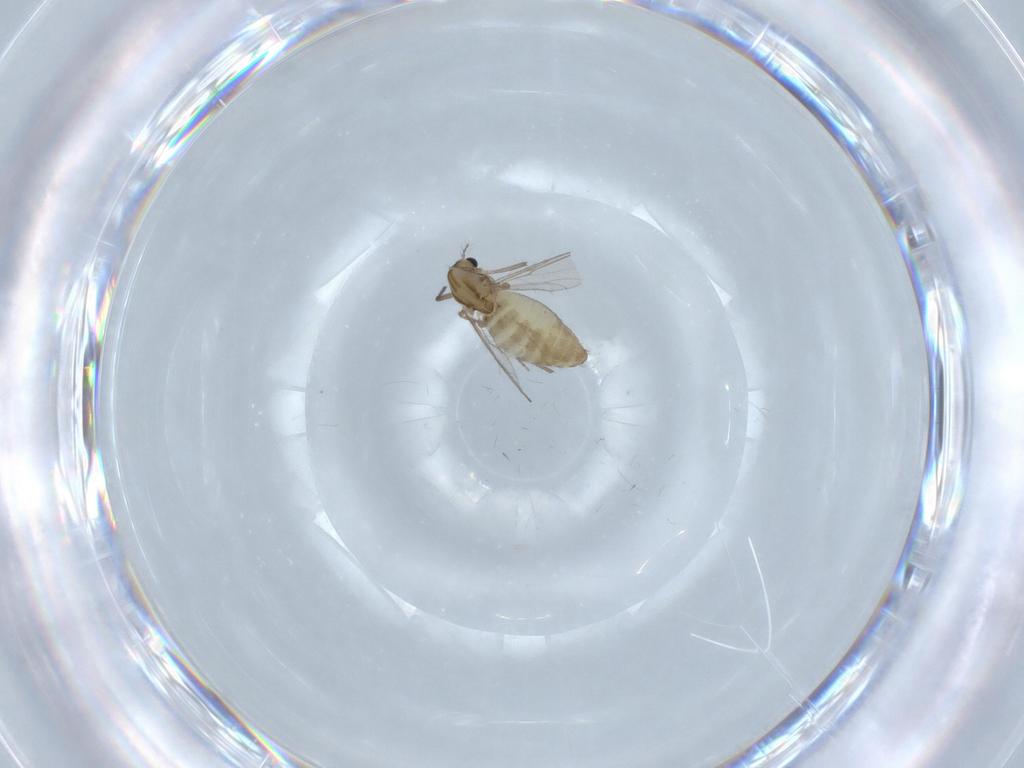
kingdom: Animalia
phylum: Arthropoda
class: Insecta
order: Diptera
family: Chironomidae
